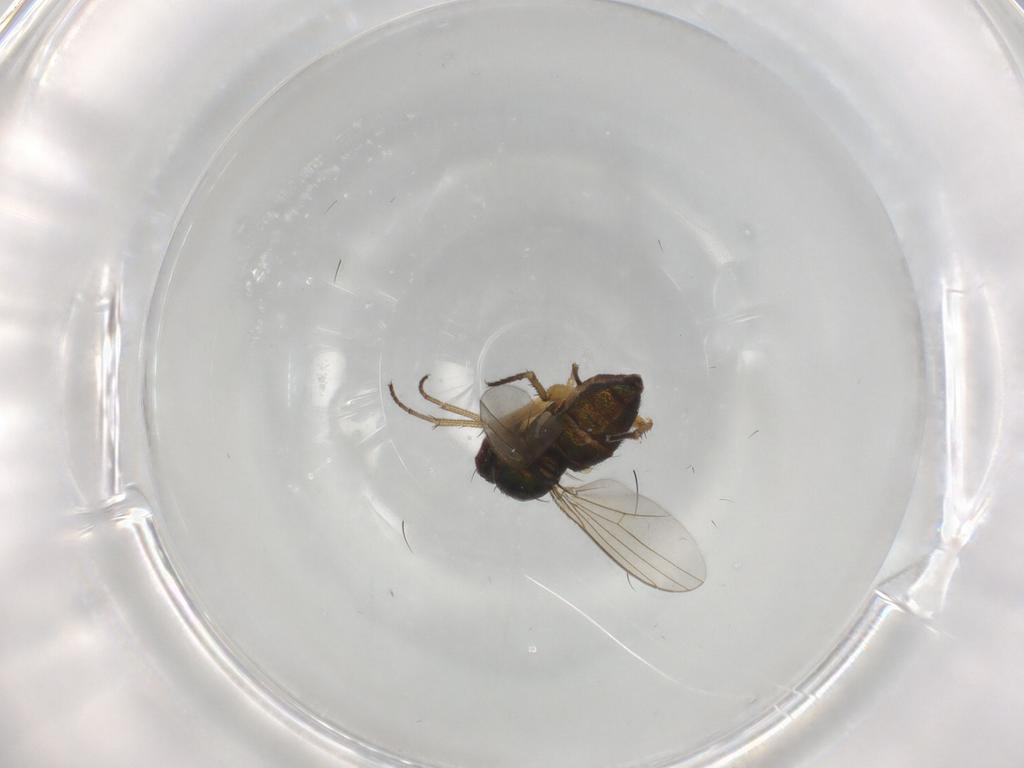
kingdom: Animalia
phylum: Arthropoda
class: Insecta
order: Diptera
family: Dolichopodidae
